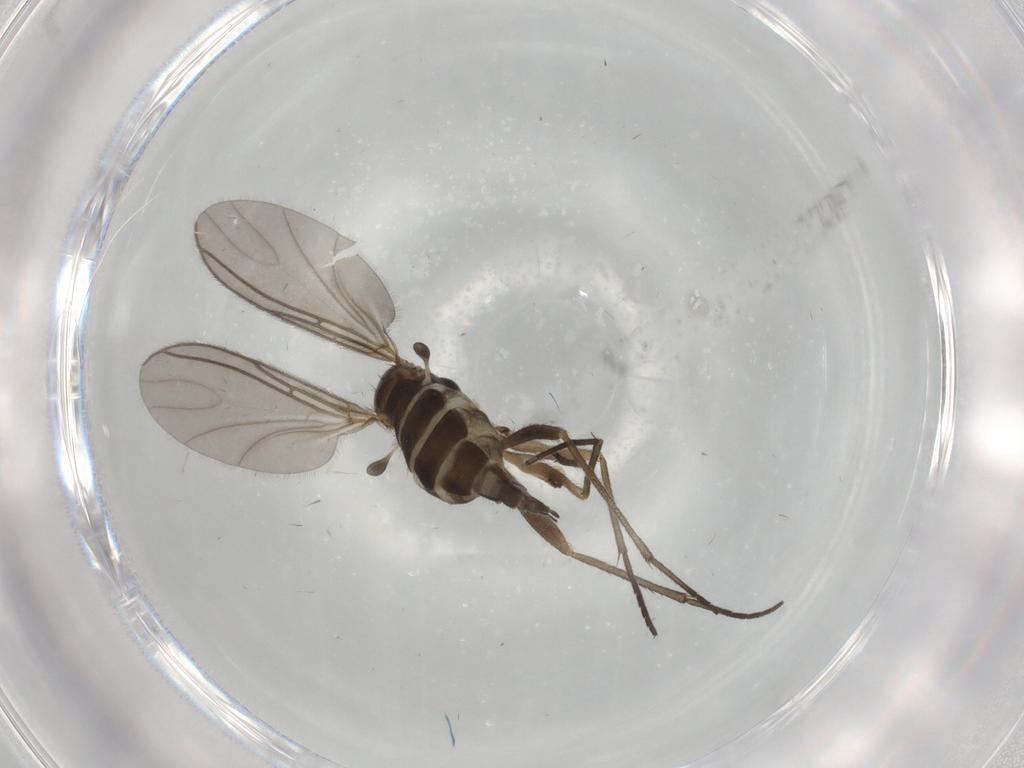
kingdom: Animalia
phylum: Arthropoda
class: Insecta
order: Diptera
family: Sciaridae
